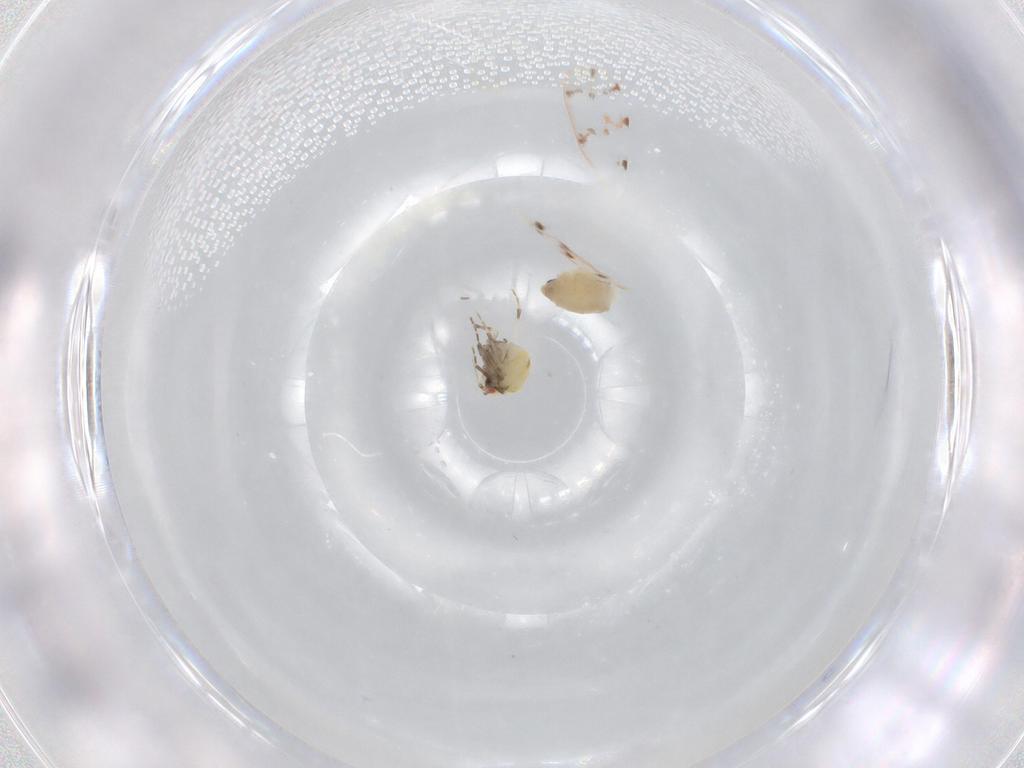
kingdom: Animalia
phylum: Arthropoda
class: Insecta
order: Hemiptera
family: Aleyrodidae
